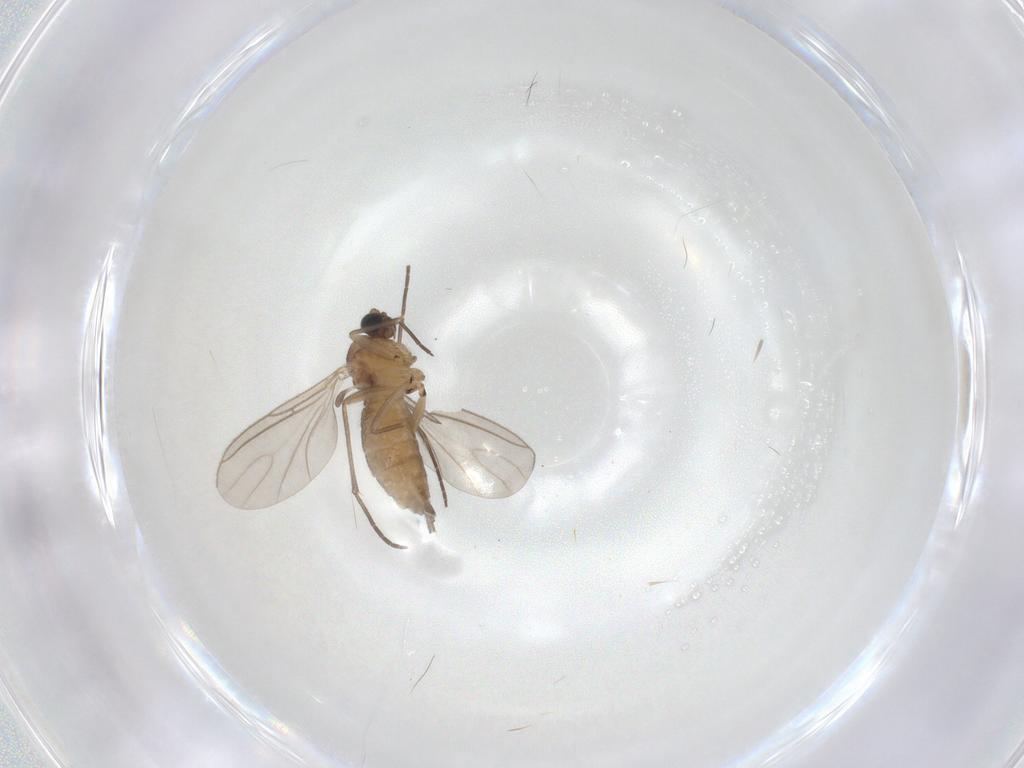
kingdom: Animalia
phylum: Arthropoda
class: Insecta
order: Diptera
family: Sciaridae
